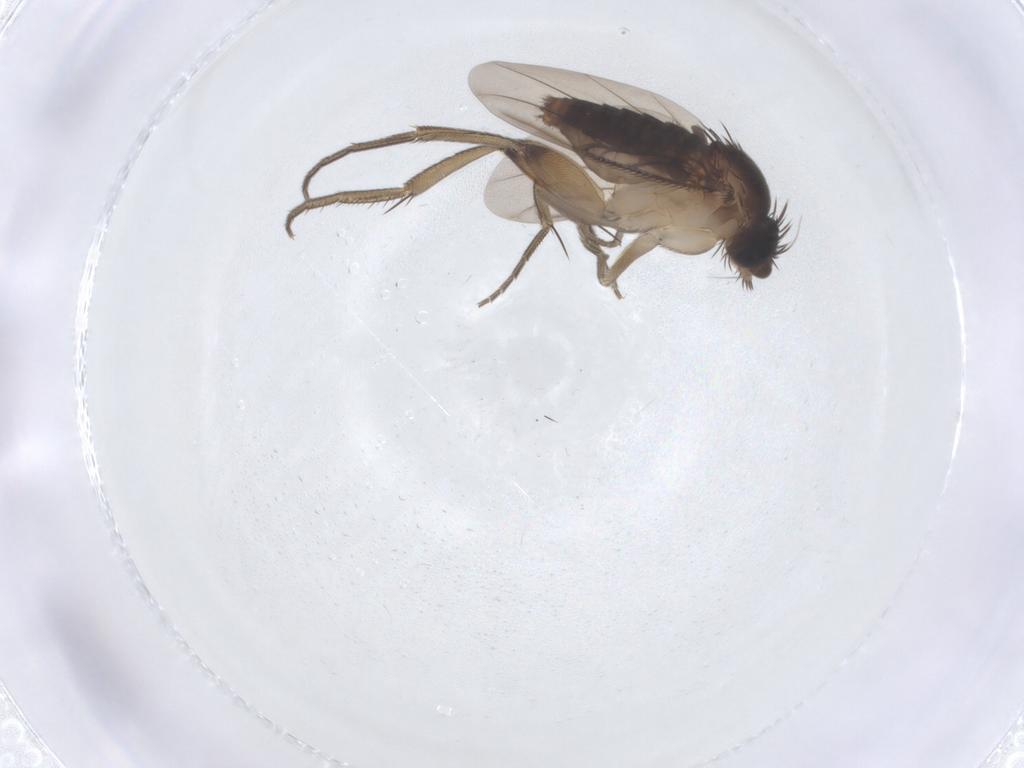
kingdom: Animalia
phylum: Arthropoda
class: Insecta
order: Diptera
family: Phoridae
